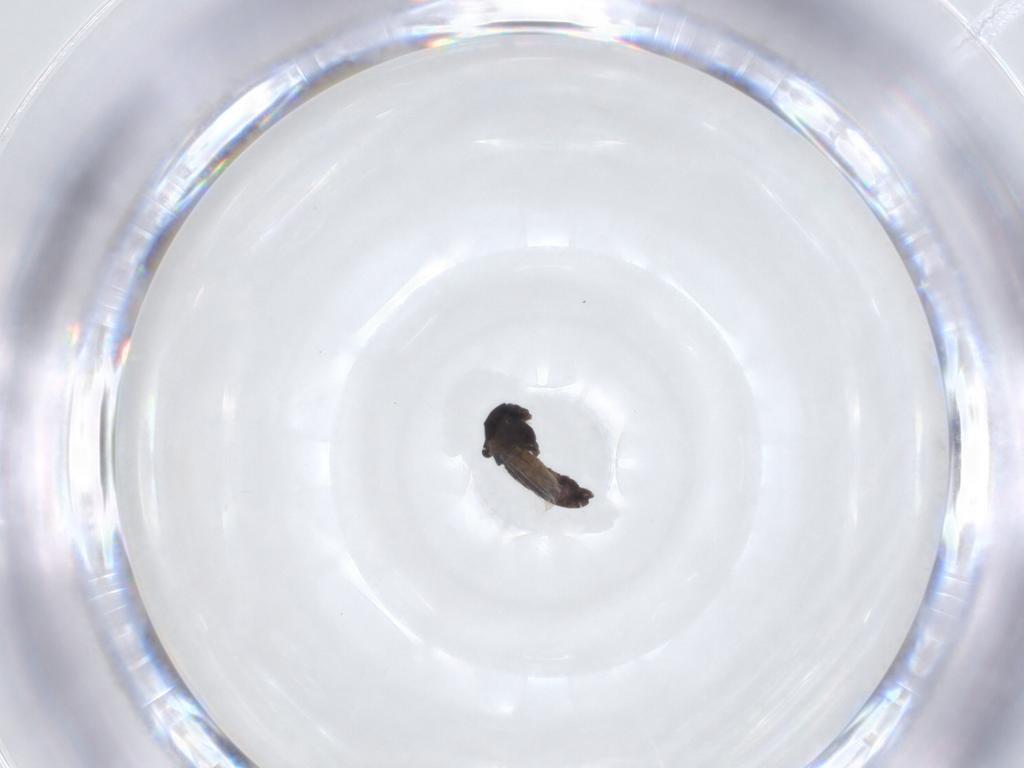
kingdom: Animalia
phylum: Arthropoda
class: Insecta
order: Diptera
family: Chironomidae
